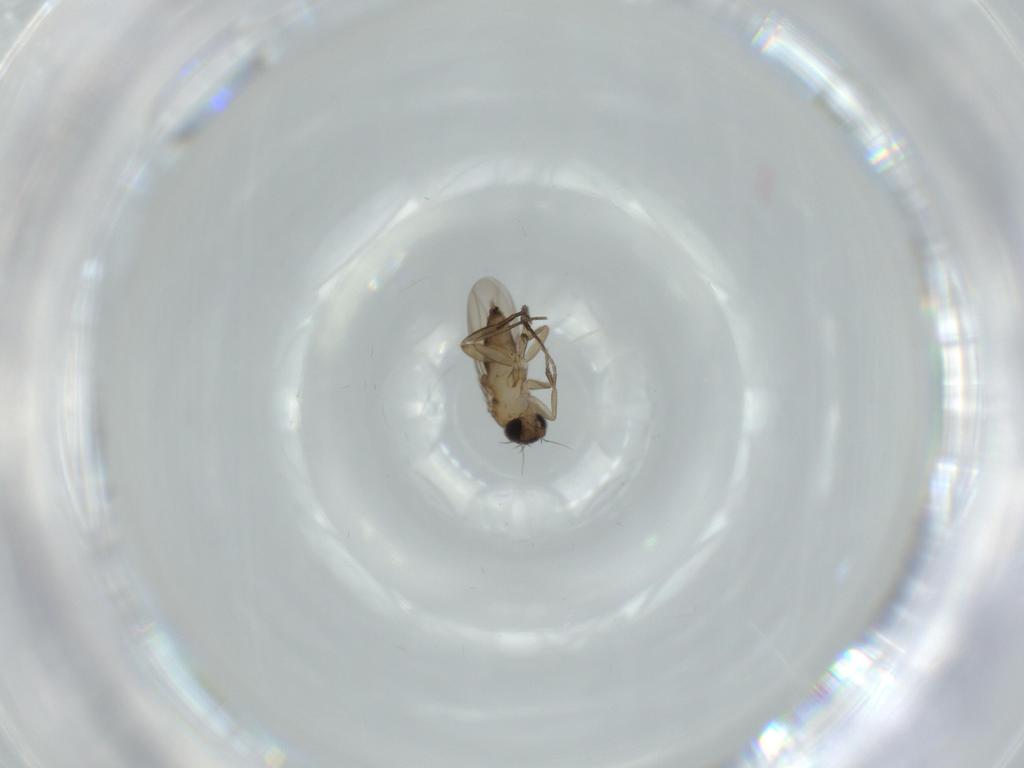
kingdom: Animalia
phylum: Arthropoda
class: Insecta
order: Diptera
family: Phoridae
